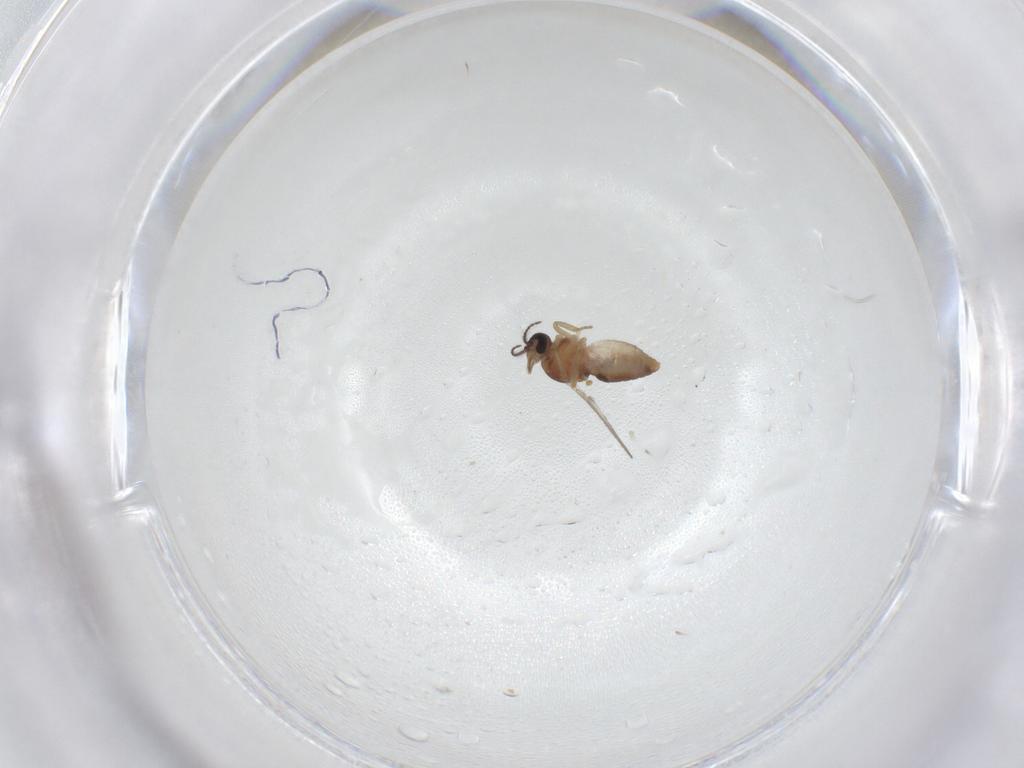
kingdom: Animalia
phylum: Arthropoda
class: Insecta
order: Diptera
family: Ceratopogonidae
